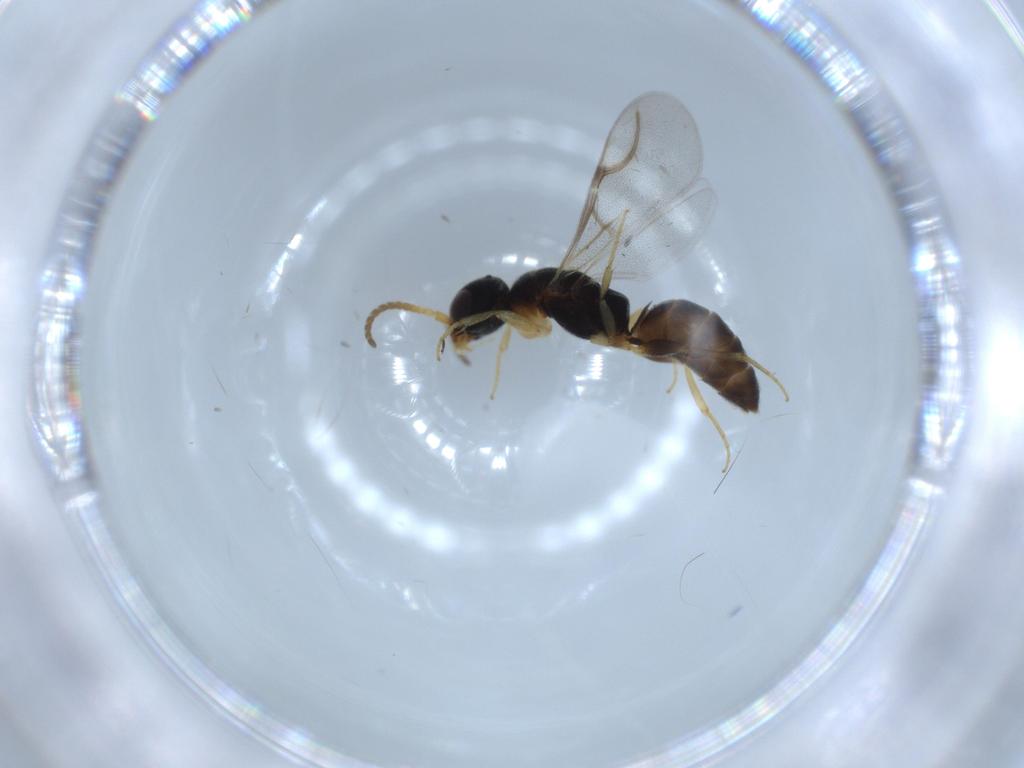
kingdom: Animalia
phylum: Arthropoda
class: Insecta
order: Hymenoptera
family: Bethylidae
